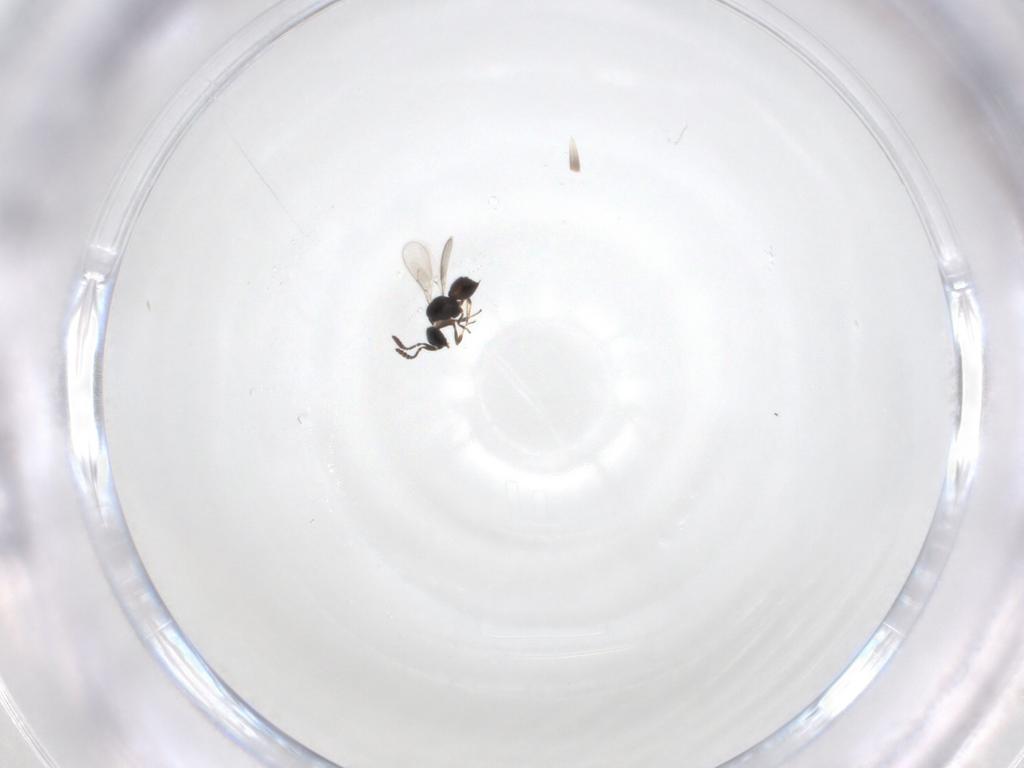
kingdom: Animalia
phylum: Arthropoda
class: Insecta
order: Hymenoptera
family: Scelionidae
